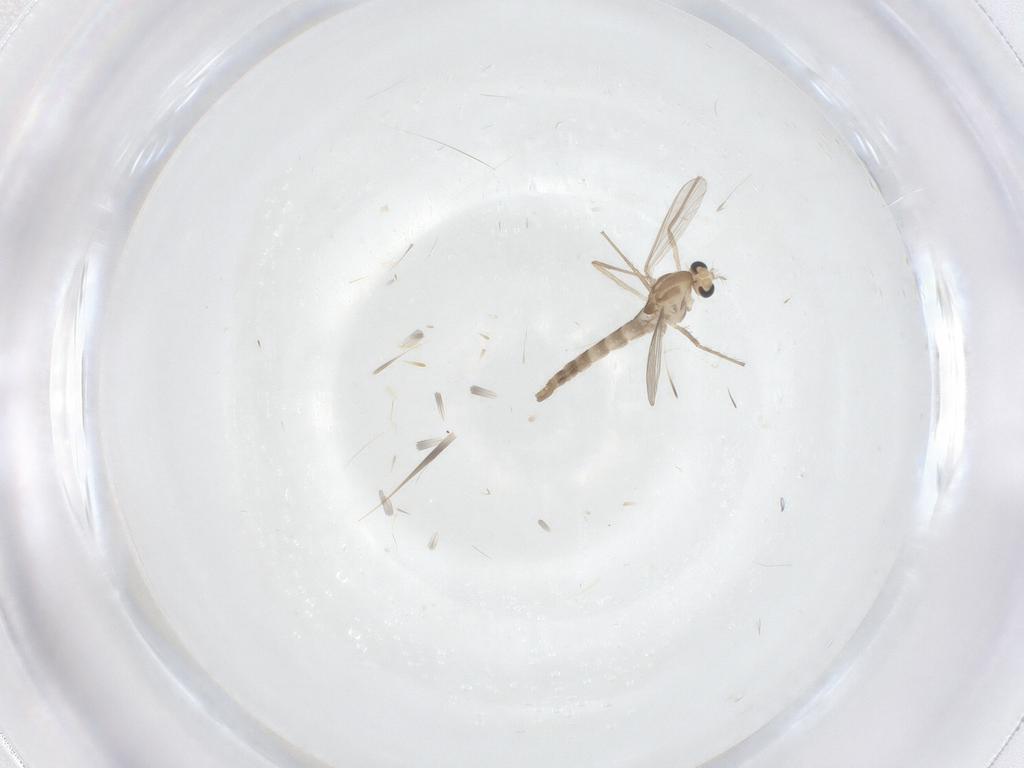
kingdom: Animalia
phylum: Arthropoda
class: Insecta
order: Diptera
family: Chironomidae
